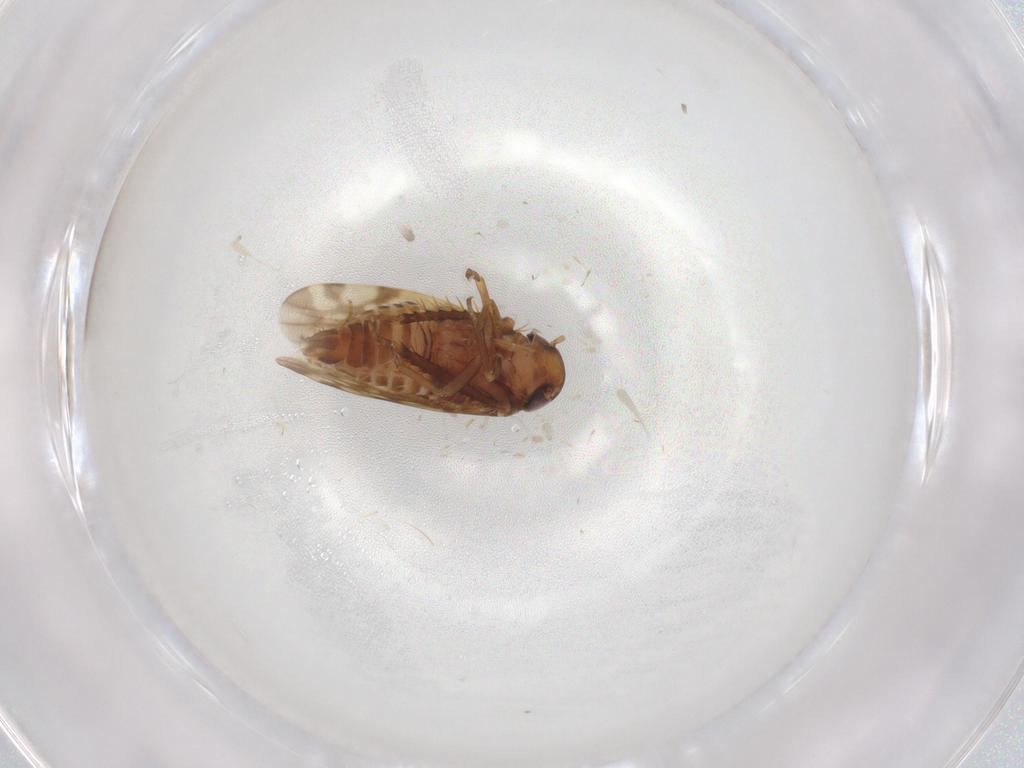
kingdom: Animalia
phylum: Arthropoda
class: Insecta
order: Hemiptera
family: Cicadellidae
